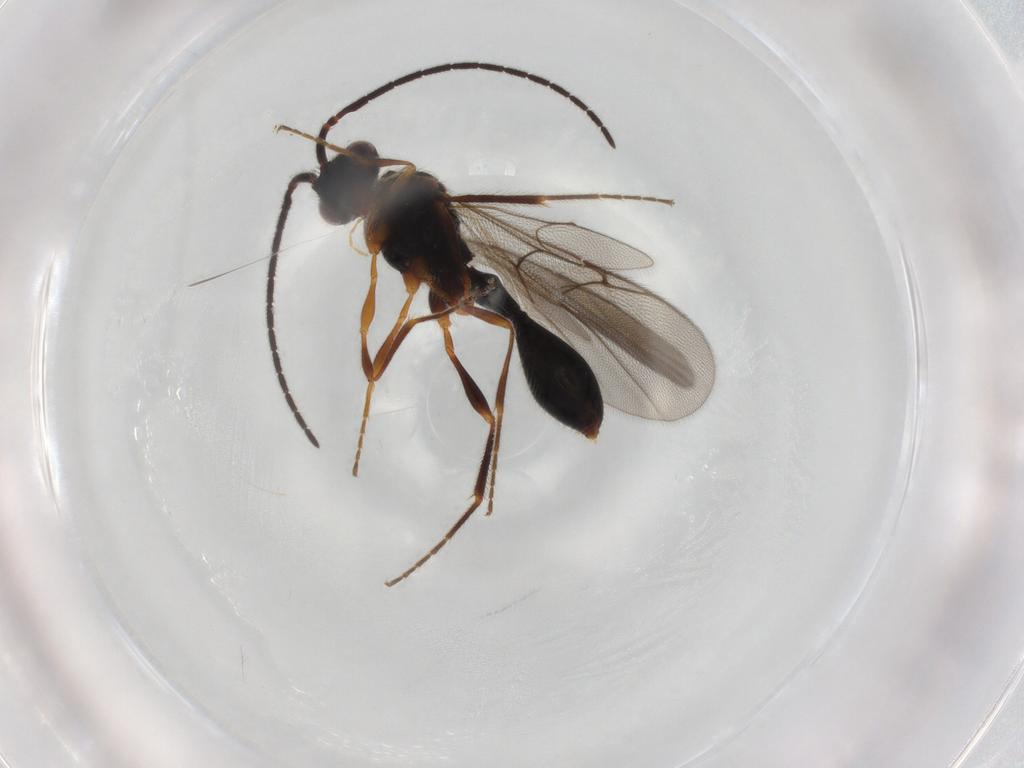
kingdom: Animalia
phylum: Arthropoda
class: Insecta
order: Hymenoptera
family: Diapriidae
